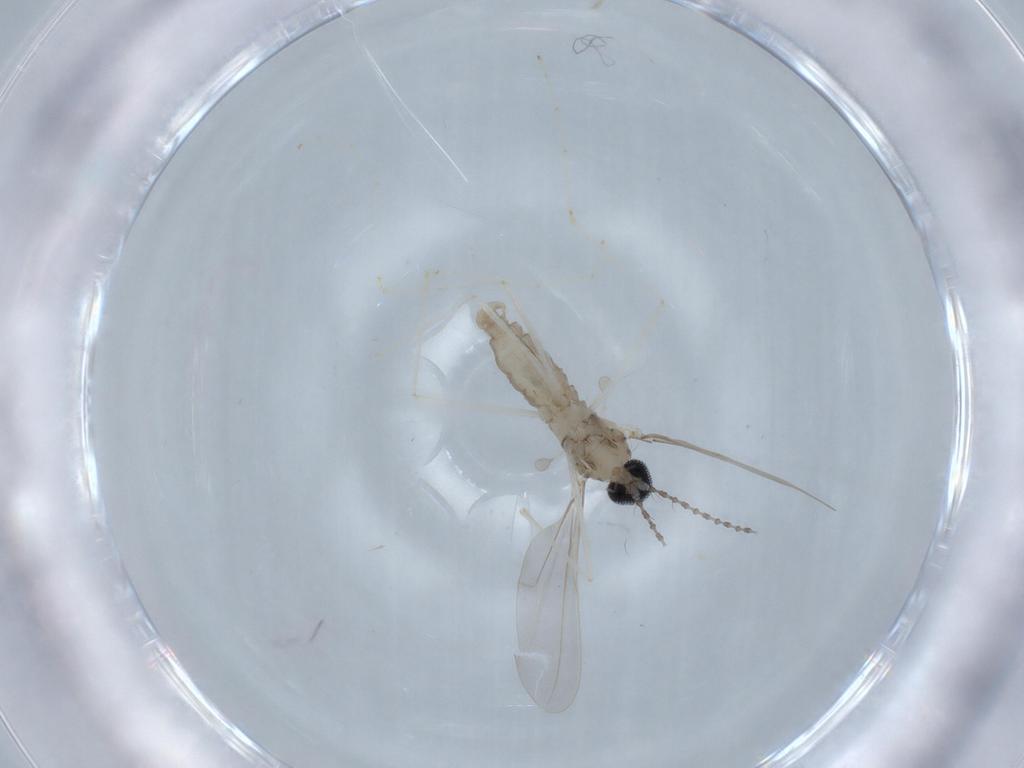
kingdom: Animalia
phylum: Arthropoda
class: Insecta
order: Diptera
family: Cecidomyiidae
